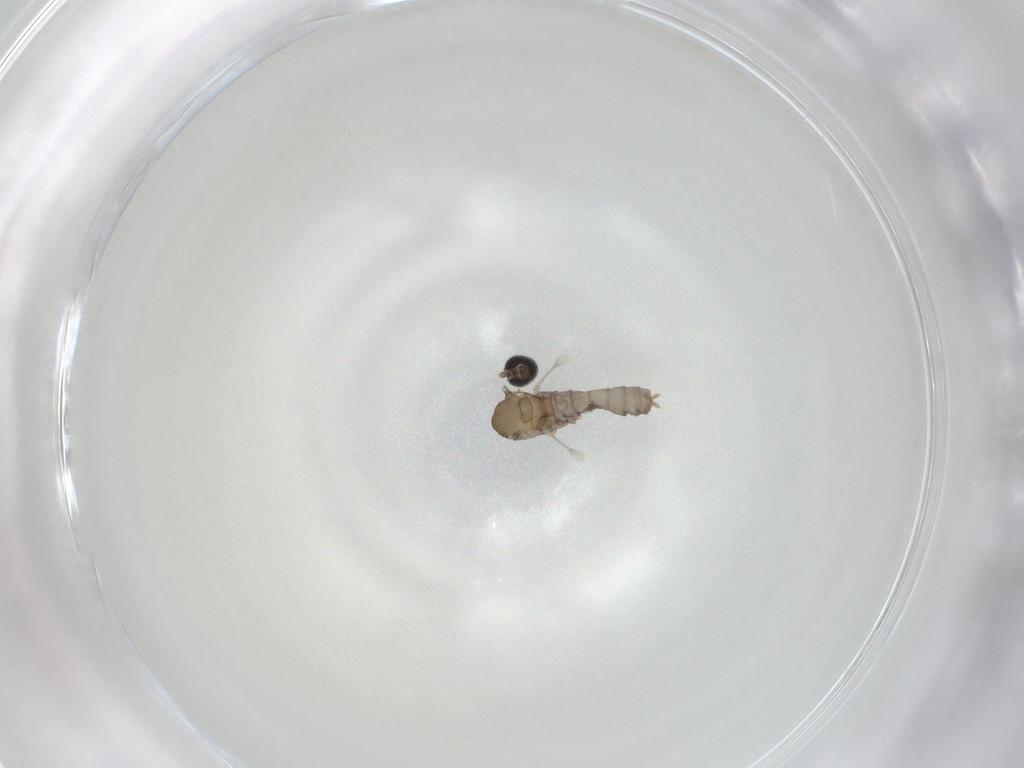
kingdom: Animalia
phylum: Arthropoda
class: Insecta
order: Diptera
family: Cecidomyiidae
